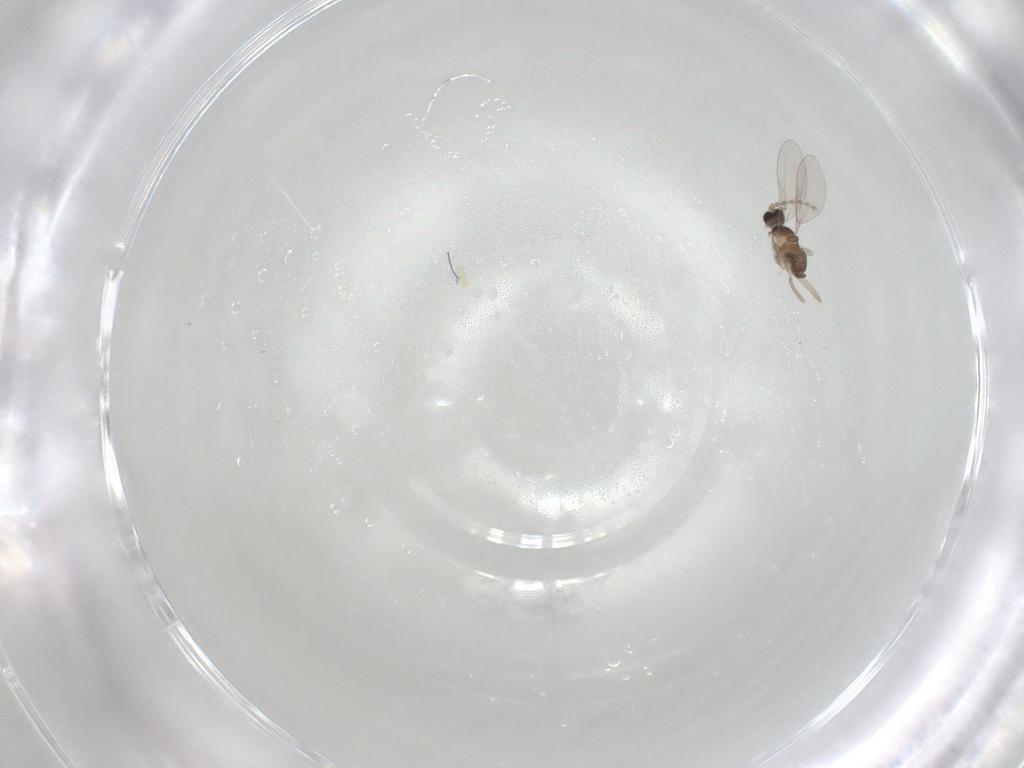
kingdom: Animalia
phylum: Arthropoda
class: Insecta
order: Diptera
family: Cecidomyiidae
